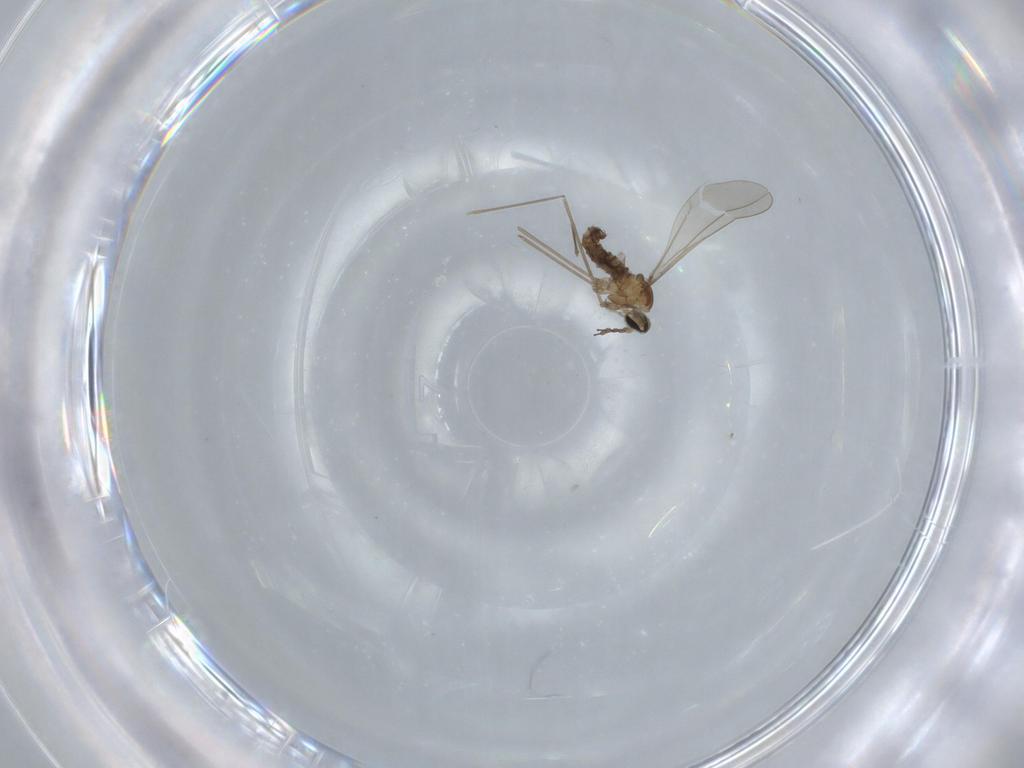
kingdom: Animalia
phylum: Arthropoda
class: Insecta
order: Diptera
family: Cecidomyiidae
